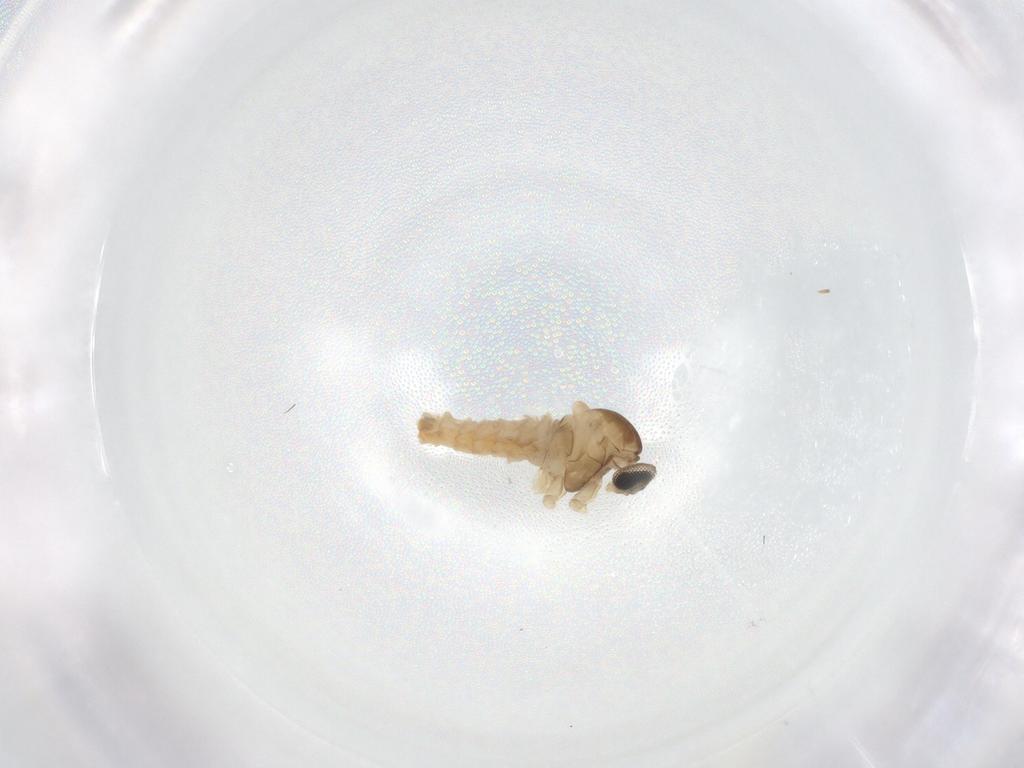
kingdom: Animalia
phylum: Arthropoda
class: Insecta
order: Diptera
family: Cecidomyiidae
